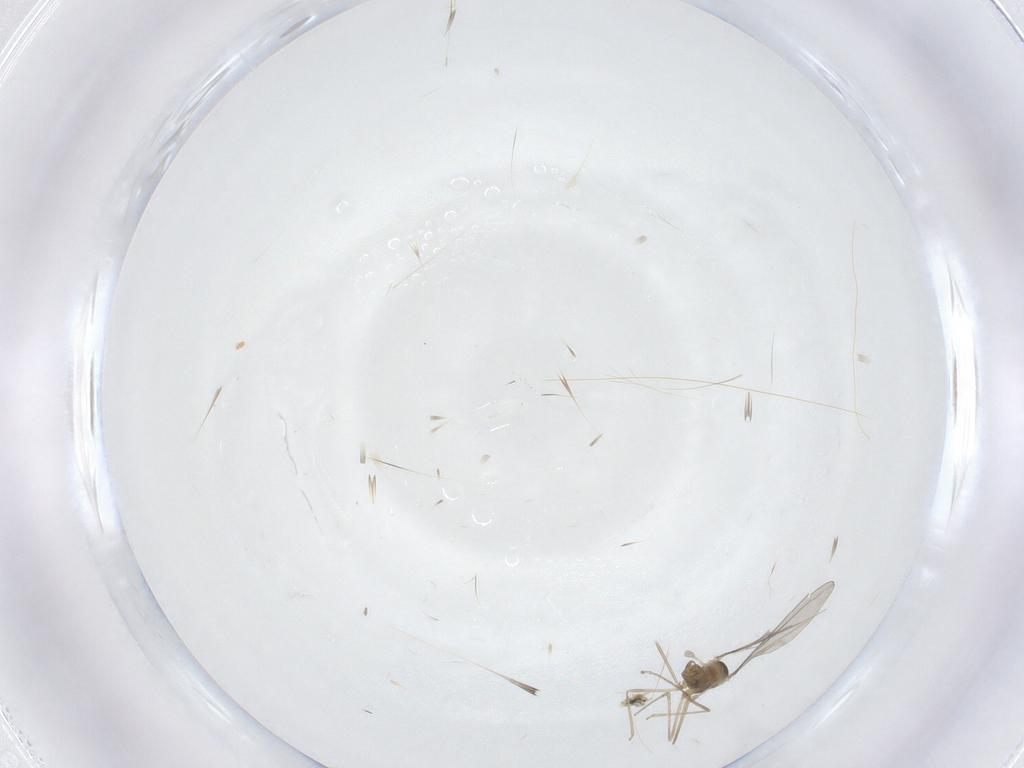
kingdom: Animalia
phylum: Arthropoda
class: Insecta
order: Diptera
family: Cecidomyiidae
